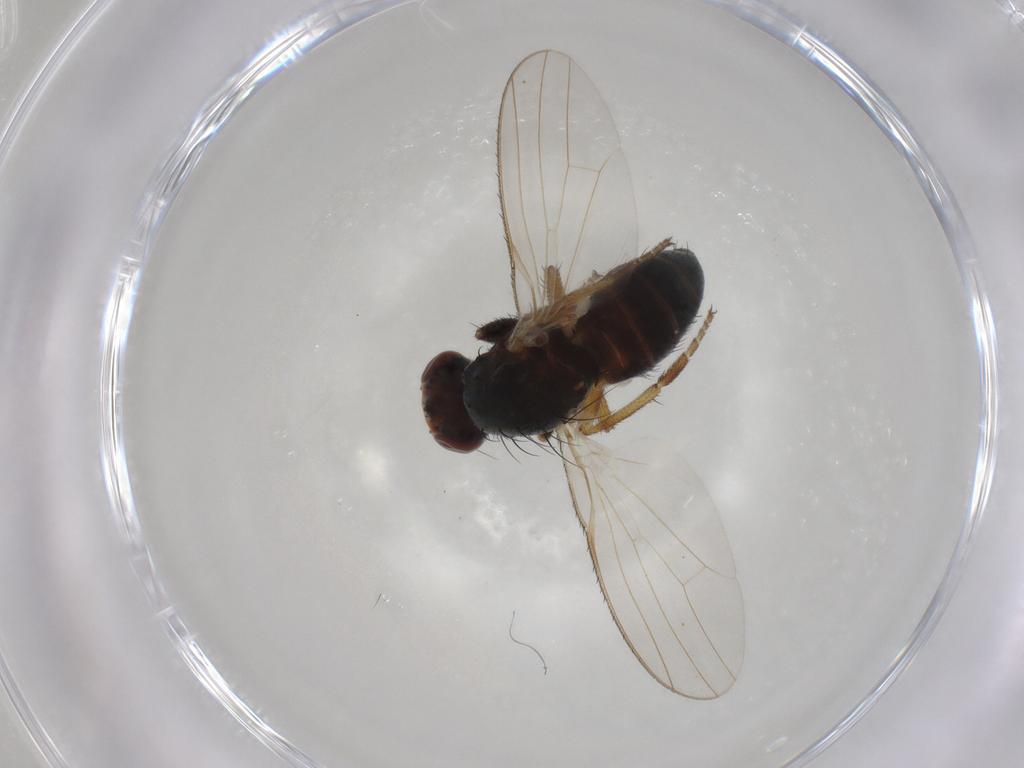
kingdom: Animalia
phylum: Arthropoda
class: Insecta
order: Diptera
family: Heleomyzidae
